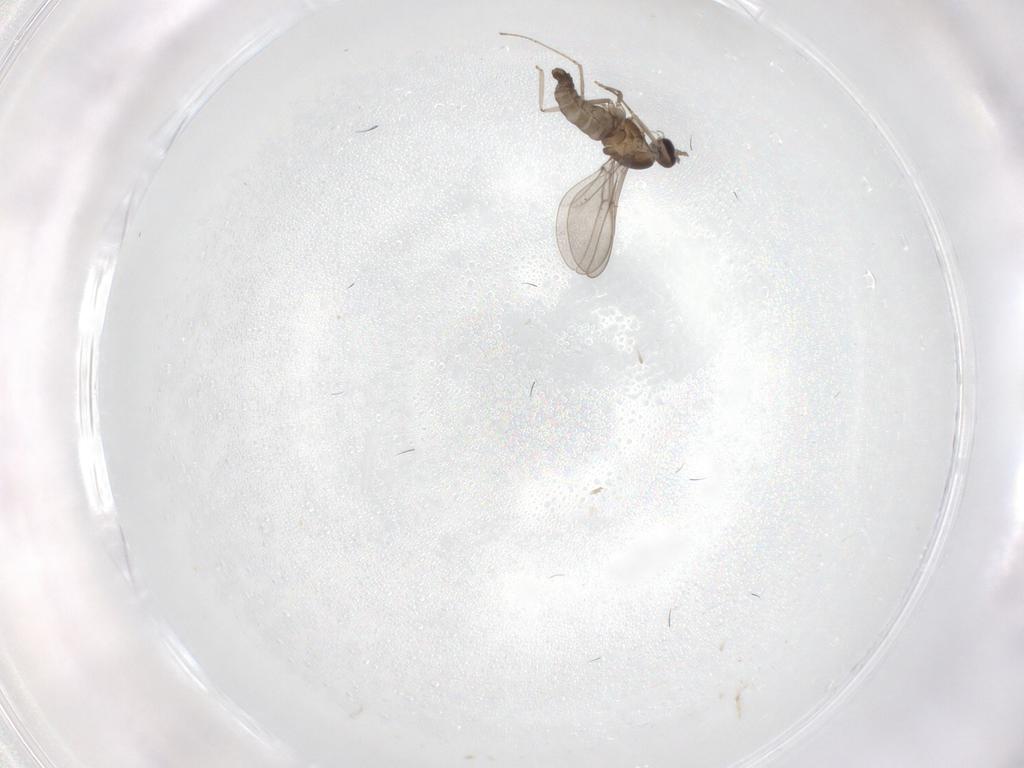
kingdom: Animalia
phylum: Arthropoda
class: Insecta
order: Diptera
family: Cecidomyiidae
